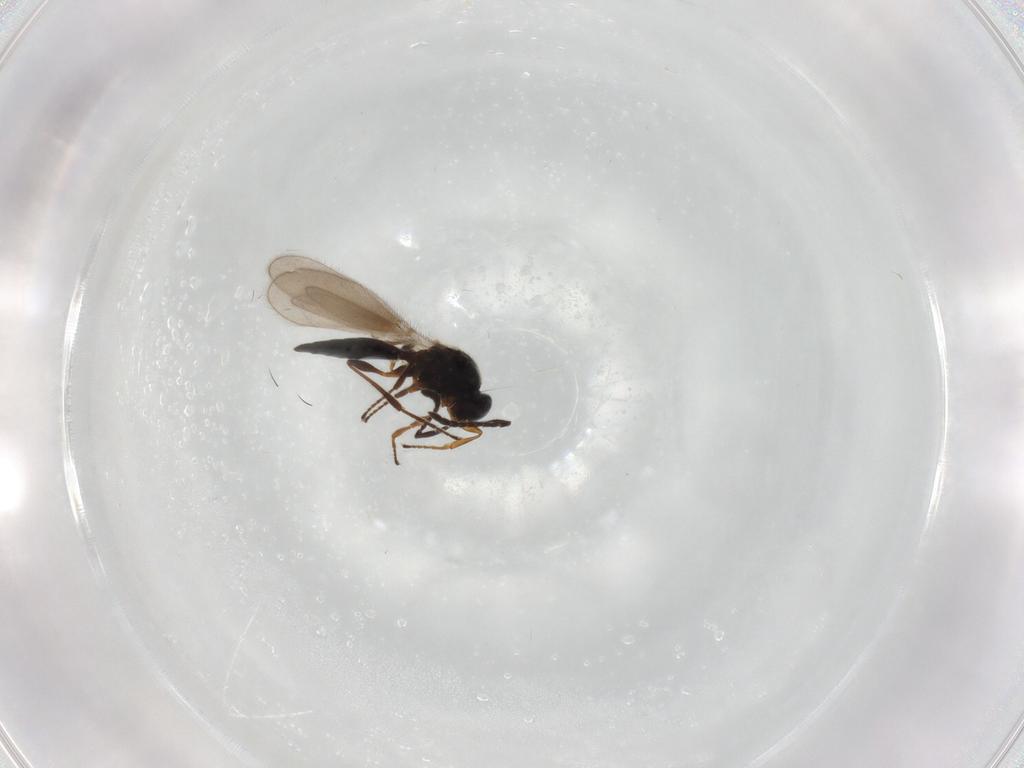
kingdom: Animalia
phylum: Arthropoda
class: Insecta
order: Hymenoptera
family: Platygastridae
